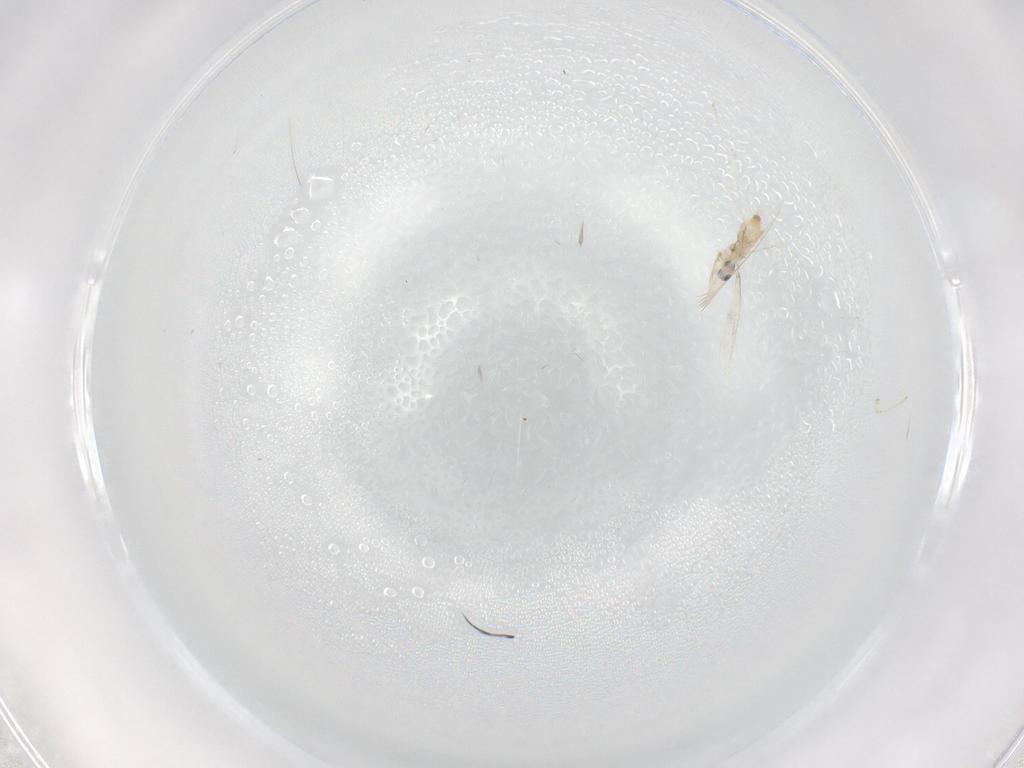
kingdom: Animalia
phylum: Arthropoda
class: Insecta
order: Diptera
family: Cecidomyiidae
